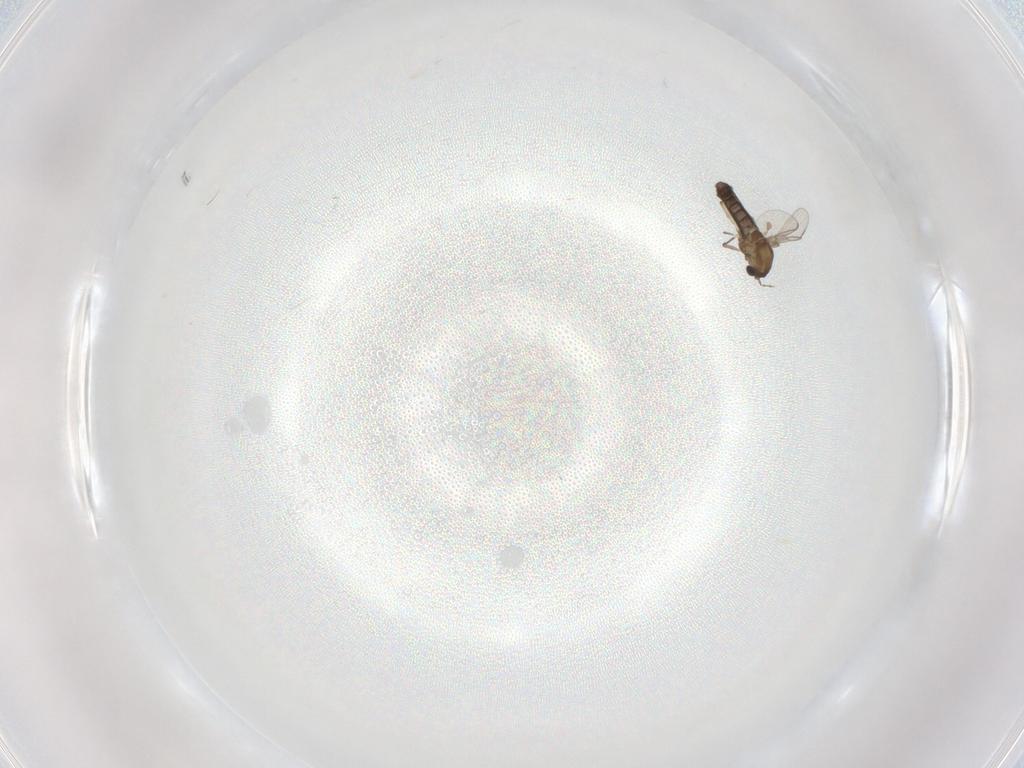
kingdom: Animalia
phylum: Arthropoda
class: Insecta
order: Diptera
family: Chironomidae
